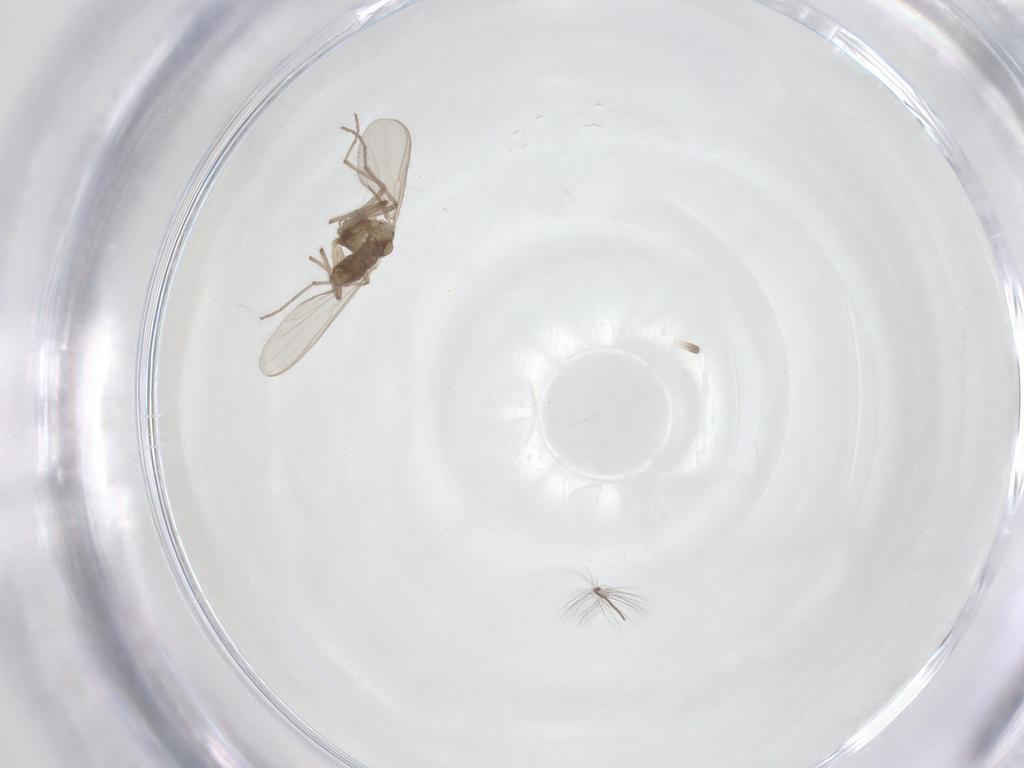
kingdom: Animalia
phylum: Arthropoda
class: Insecta
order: Diptera
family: Chironomidae
